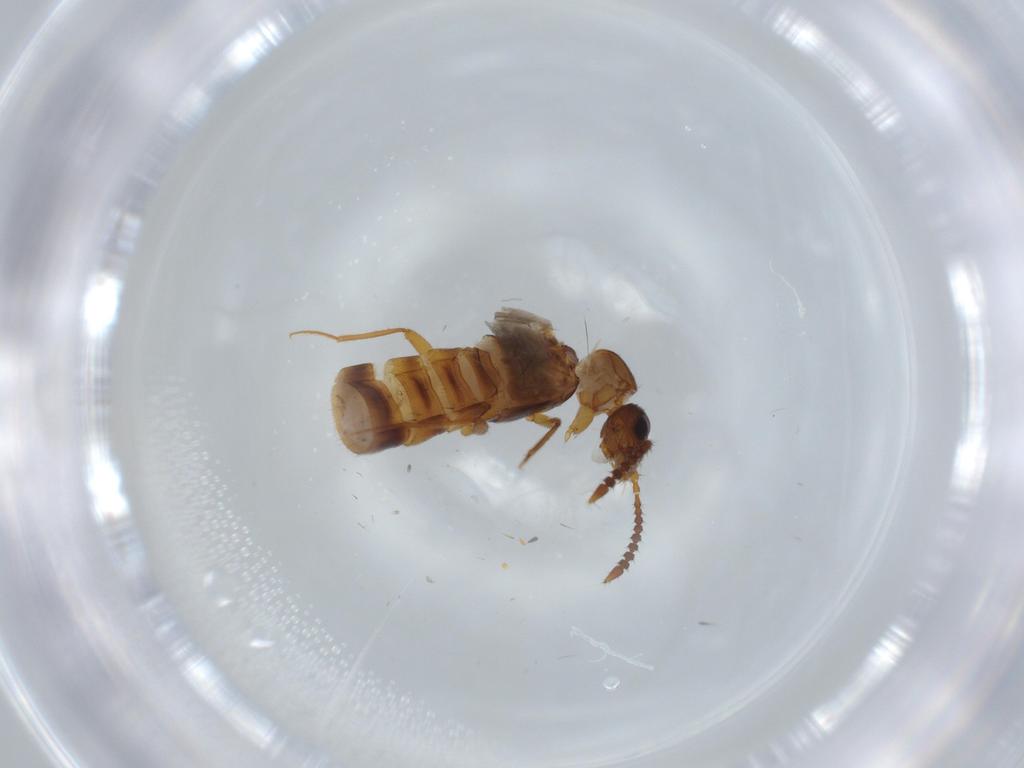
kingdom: Animalia
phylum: Arthropoda
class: Insecta
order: Coleoptera
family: Staphylinidae
